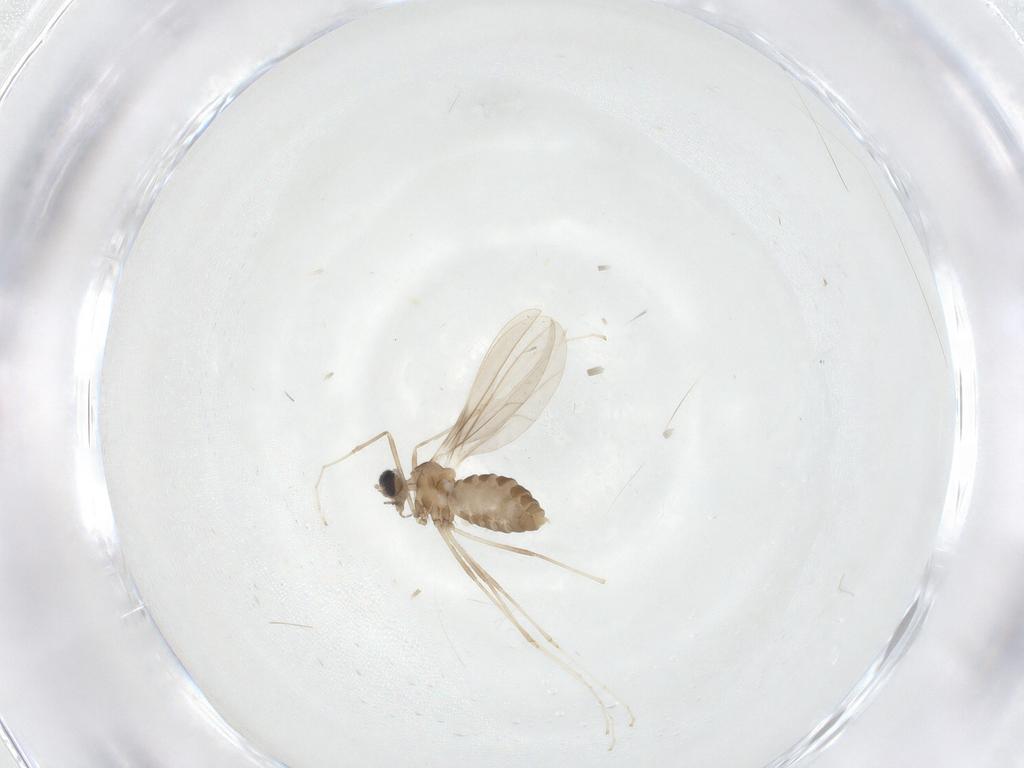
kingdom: Animalia
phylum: Arthropoda
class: Insecta
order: Diptera
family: Cecidomyiidae
